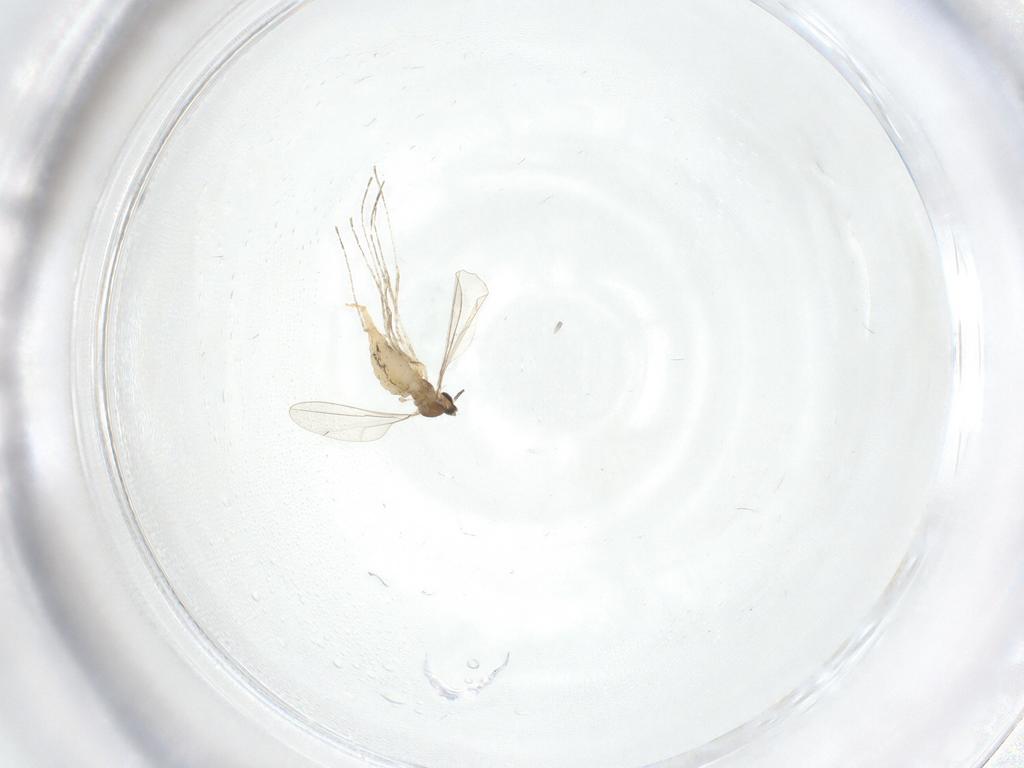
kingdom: Animalia
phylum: Arthropoda
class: Insecta
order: Diptera
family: Cecidomyiidae
